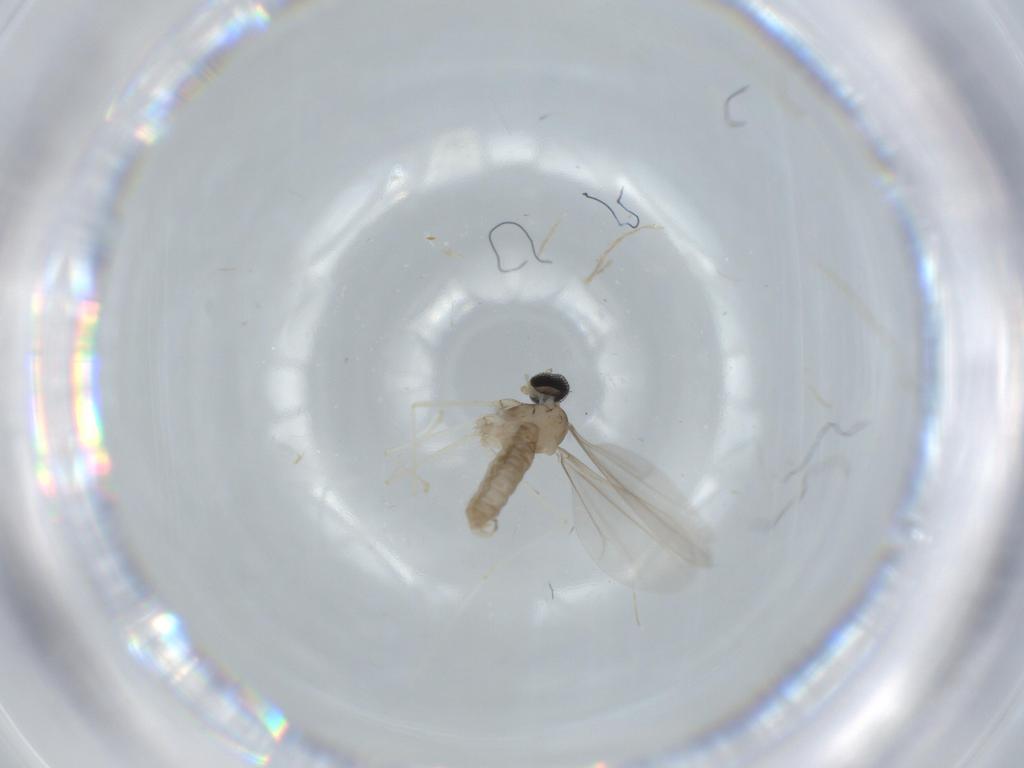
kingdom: Animalia
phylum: Arthropoda
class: Insecta
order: Diptera
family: Cecidomyiidae
